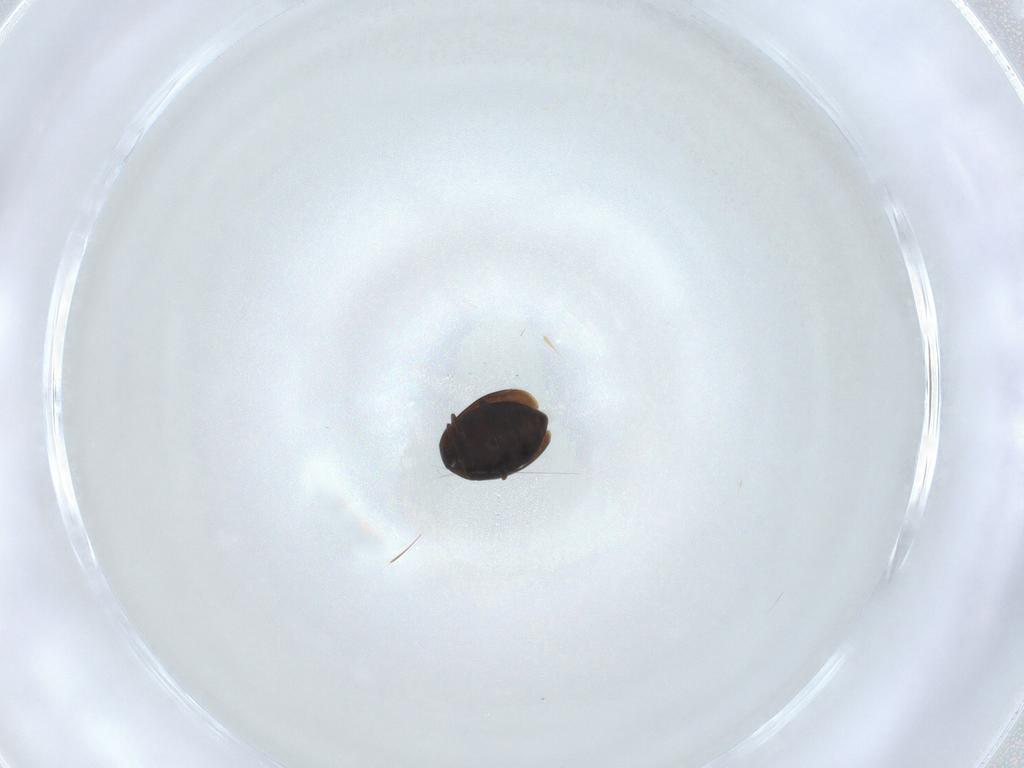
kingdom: Animalia
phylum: Arthropoda
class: Insecta
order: Coleoptera
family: Corylophidae
